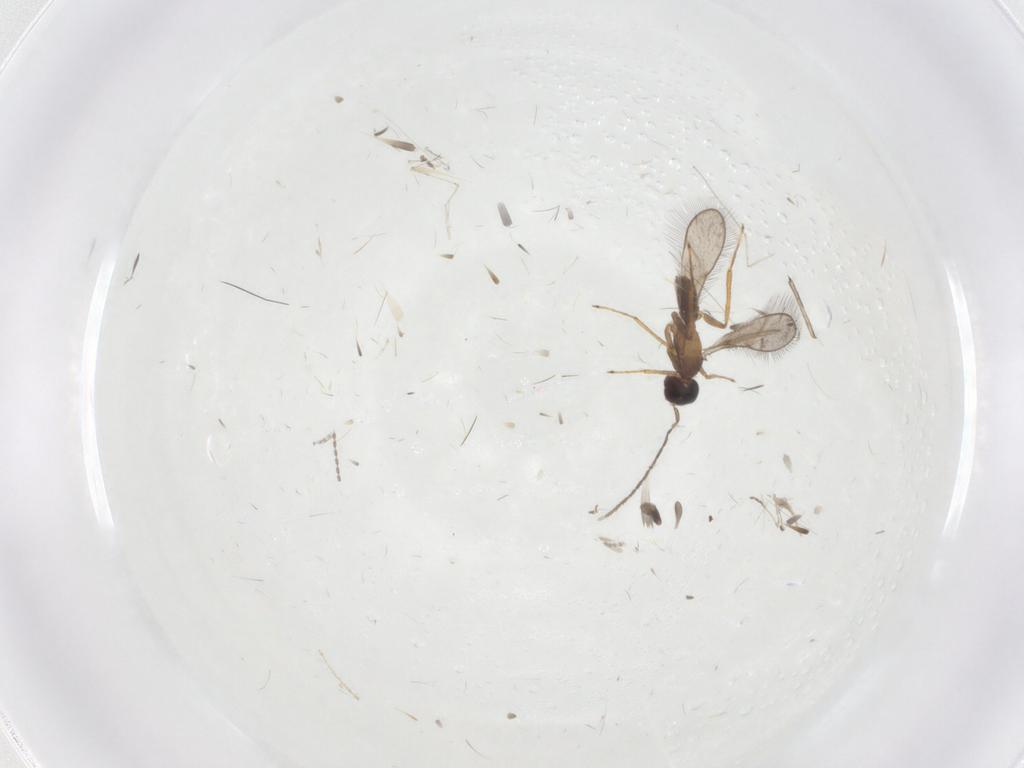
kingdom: Animalia
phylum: Arthropoda
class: Insecta
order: Hymenoptera
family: Mymaridae
